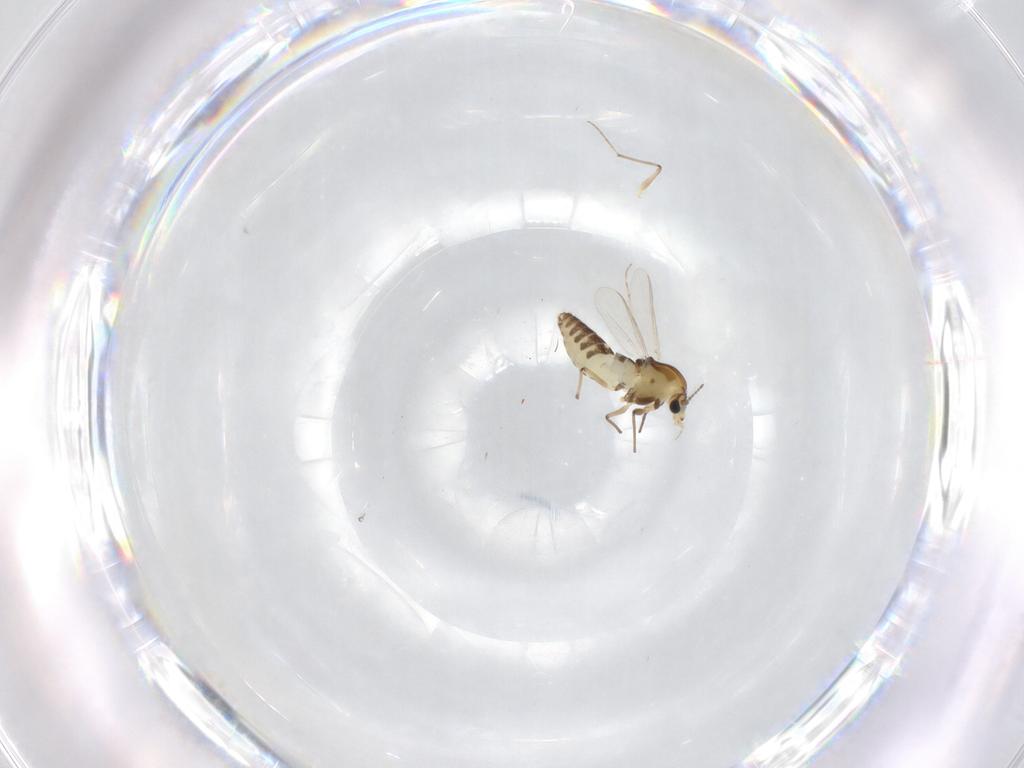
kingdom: Animalia
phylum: Arthropoda
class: Insecta
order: Diptera
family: Chironomidae
